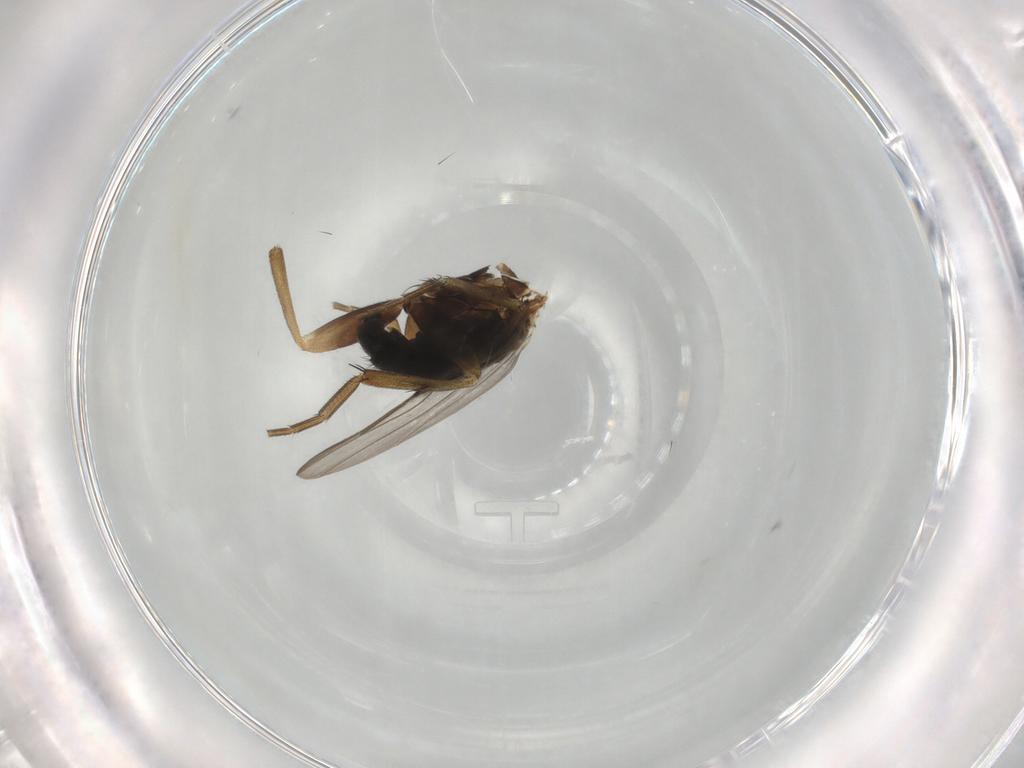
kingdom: Animalia
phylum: Arthropoda
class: Insecta
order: Diptera
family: Phoridae
